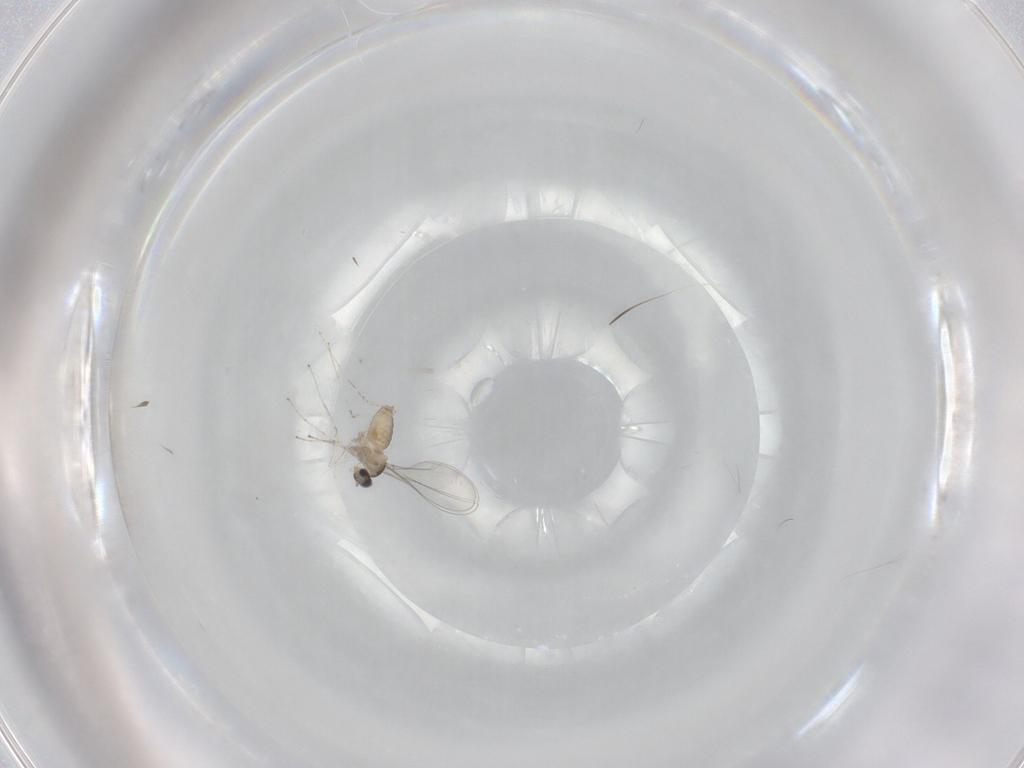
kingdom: Animalia
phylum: Arthropoda
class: Insecta
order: Diptera
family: Cecidomyiidae
